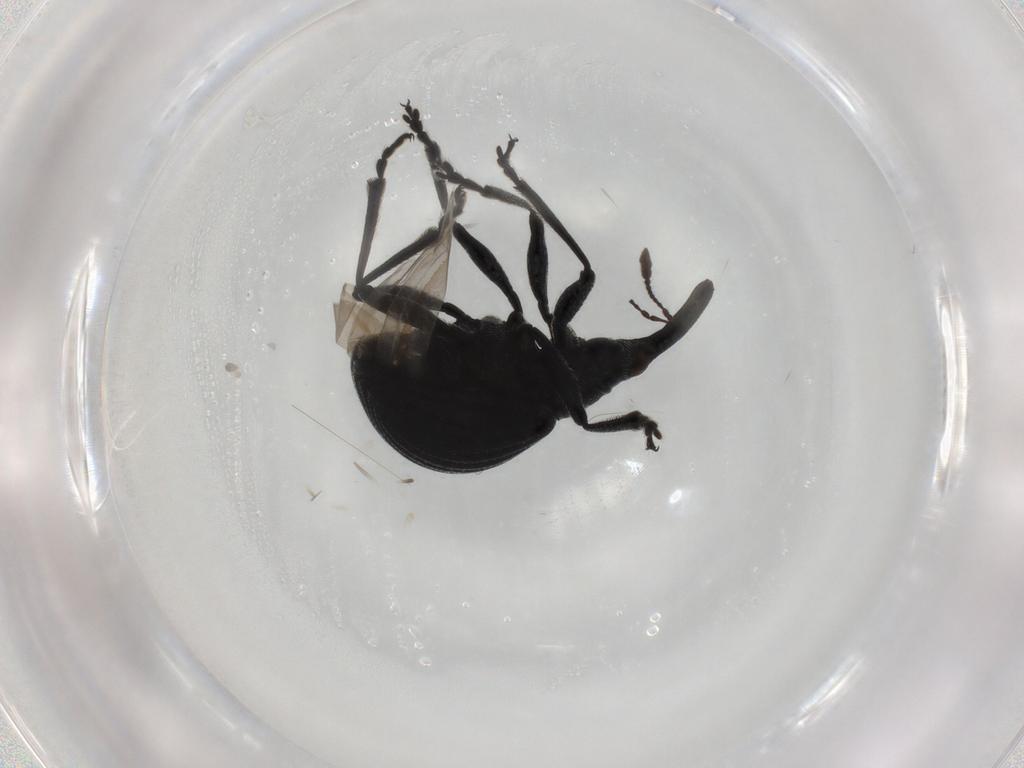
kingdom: Animalia
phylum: Arthropoda
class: Insecta
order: Coleoptera
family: Brentidae
